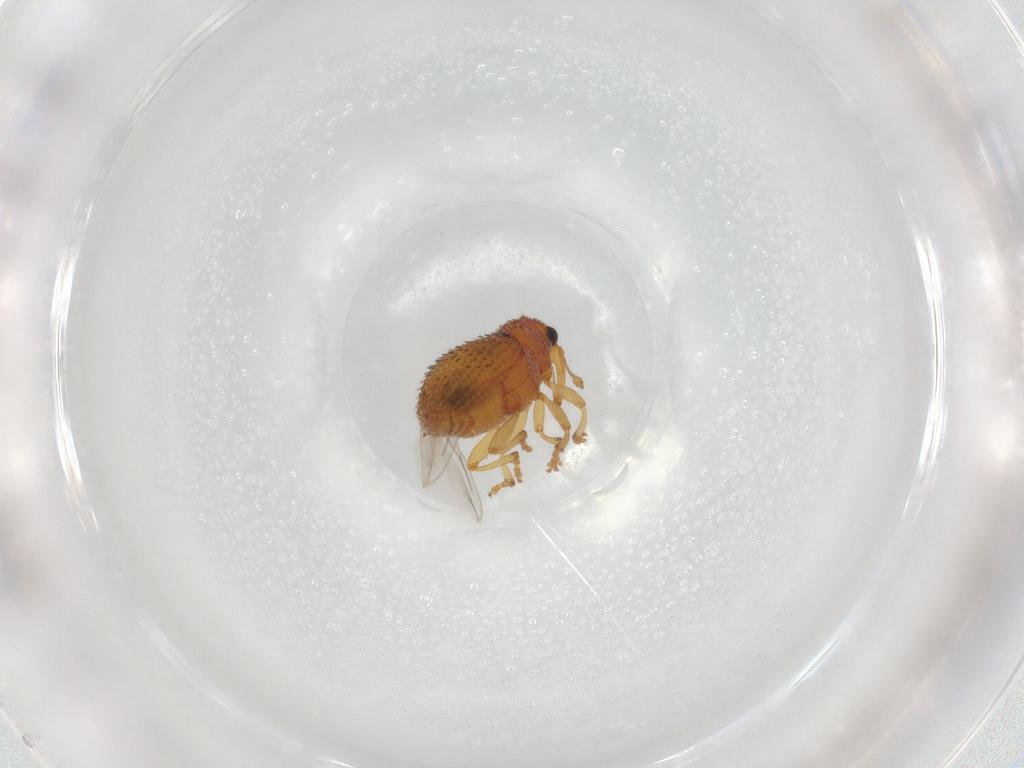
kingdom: Animalia
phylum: Arthropoda
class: Insecta
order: Coleoptera
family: Curculionidae
